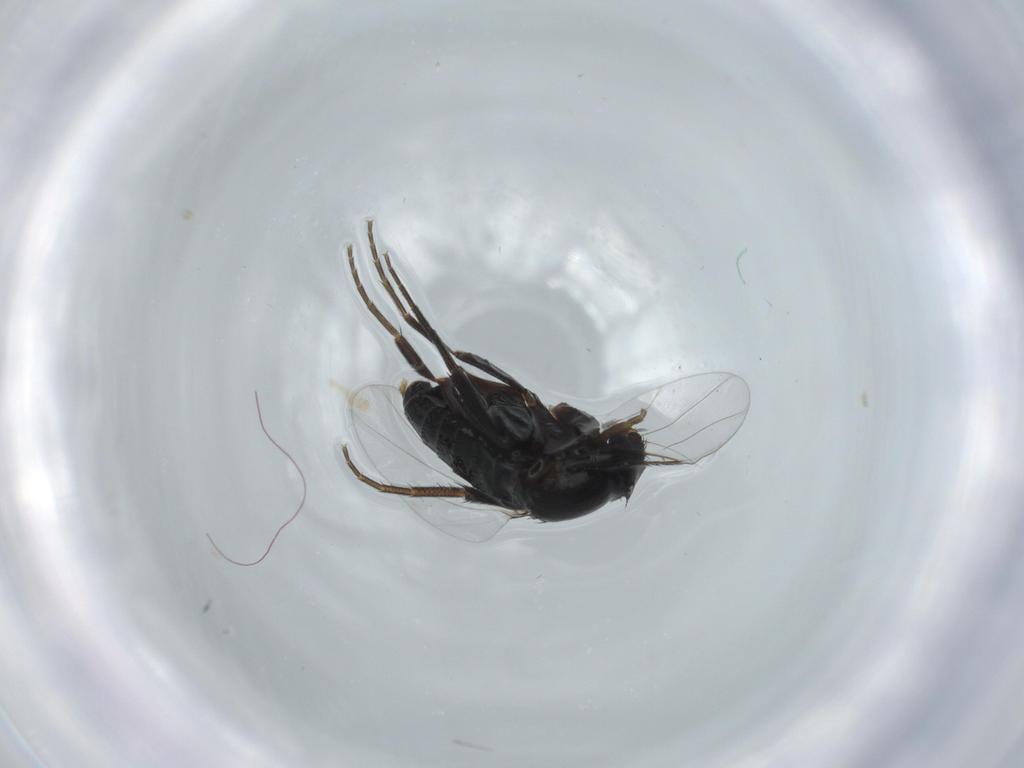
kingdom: Animalia
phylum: Arthropoda
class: Insecta
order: Diptera
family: Phoridae
